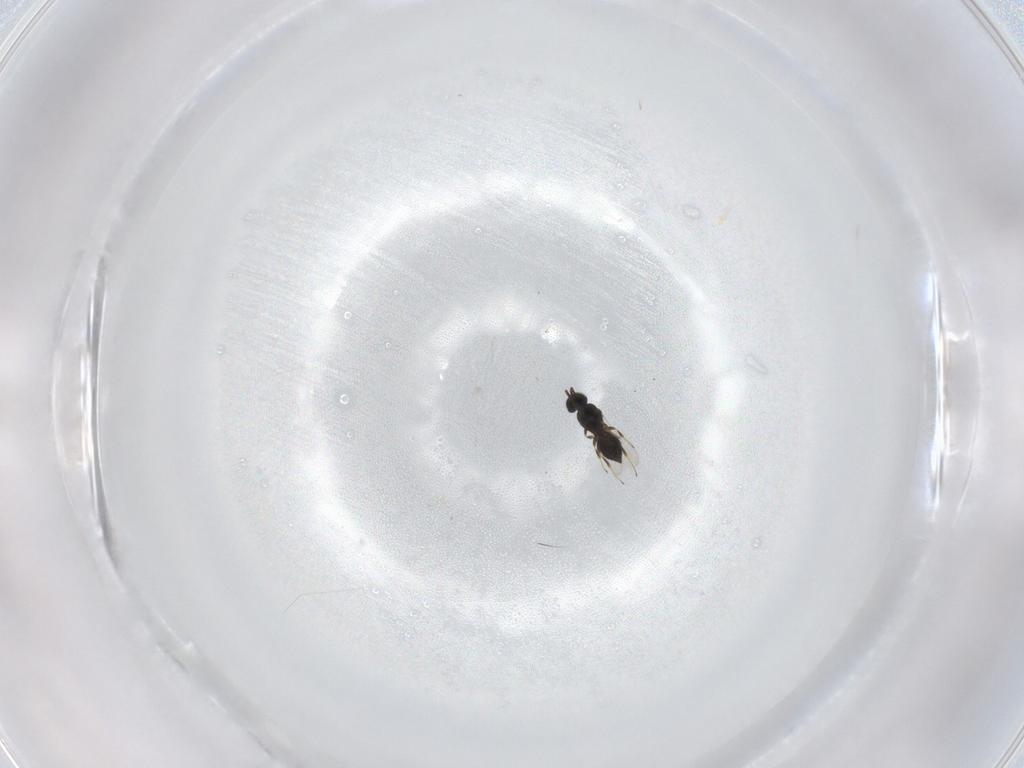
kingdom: Animalia
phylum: Arthropoda
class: Insecta
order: Hymenoptera
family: Scelionidae
